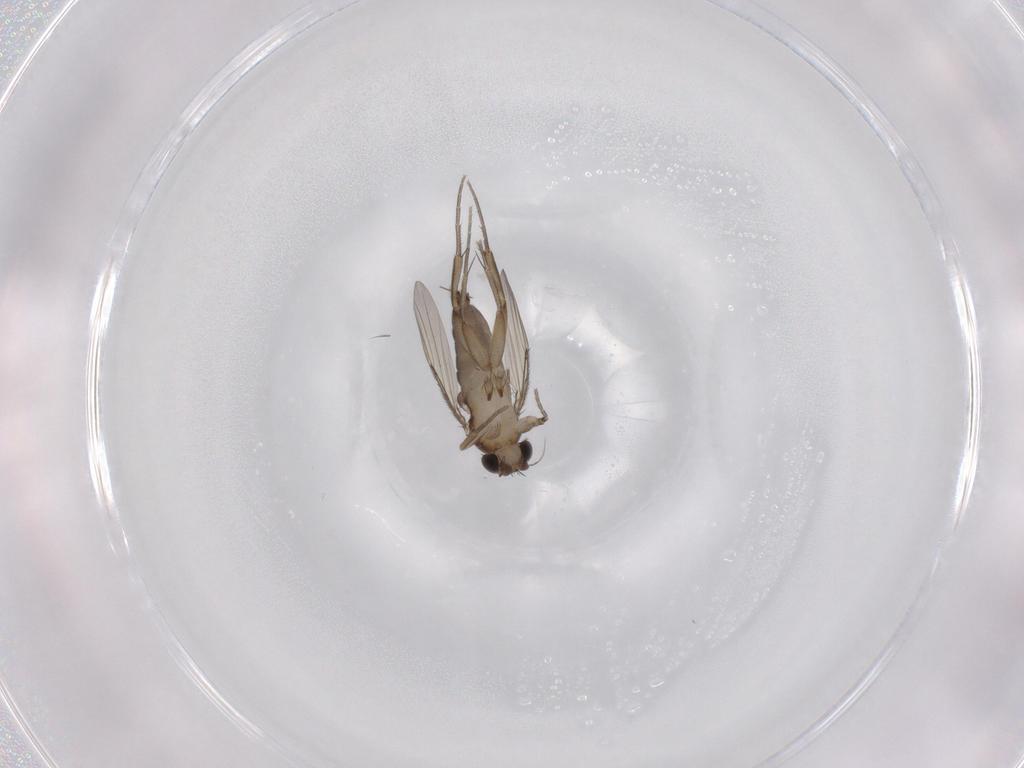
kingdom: Animalia
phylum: Arthropoda
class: Insecta
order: Diptera
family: Phoridae
